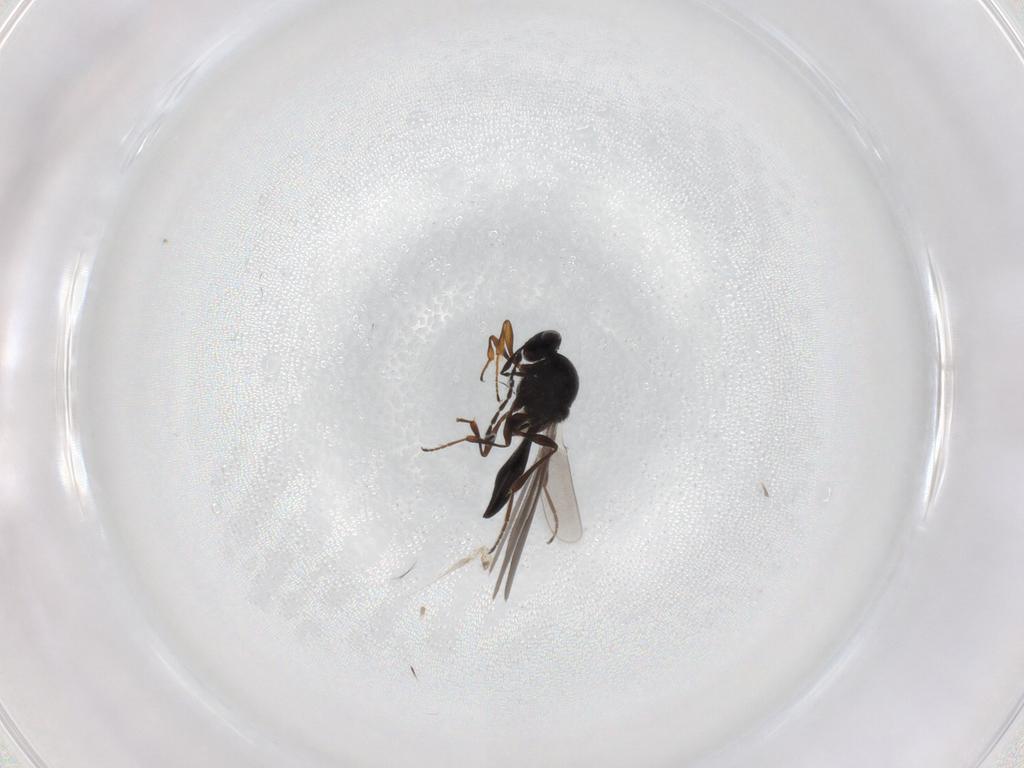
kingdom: Animalia
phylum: Arthropoda
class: Insecta
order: Hymenoptera
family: Platygastridae
